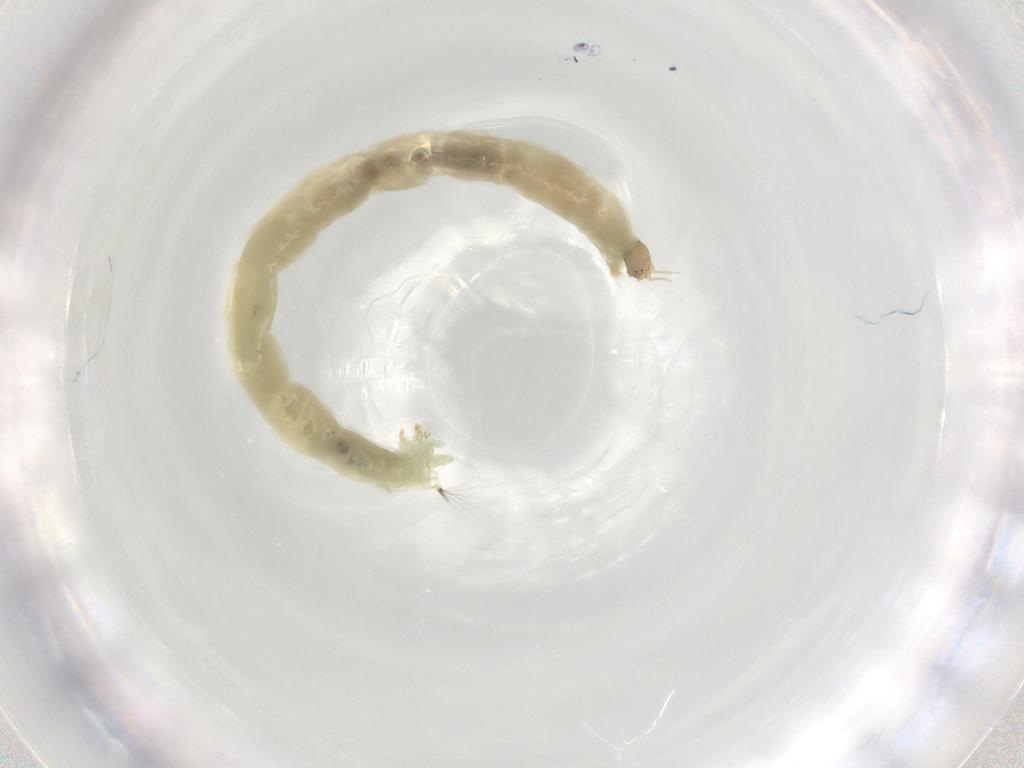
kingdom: Animalia
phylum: Arthropoda
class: Insecta
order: Diptera
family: Chironomidae
